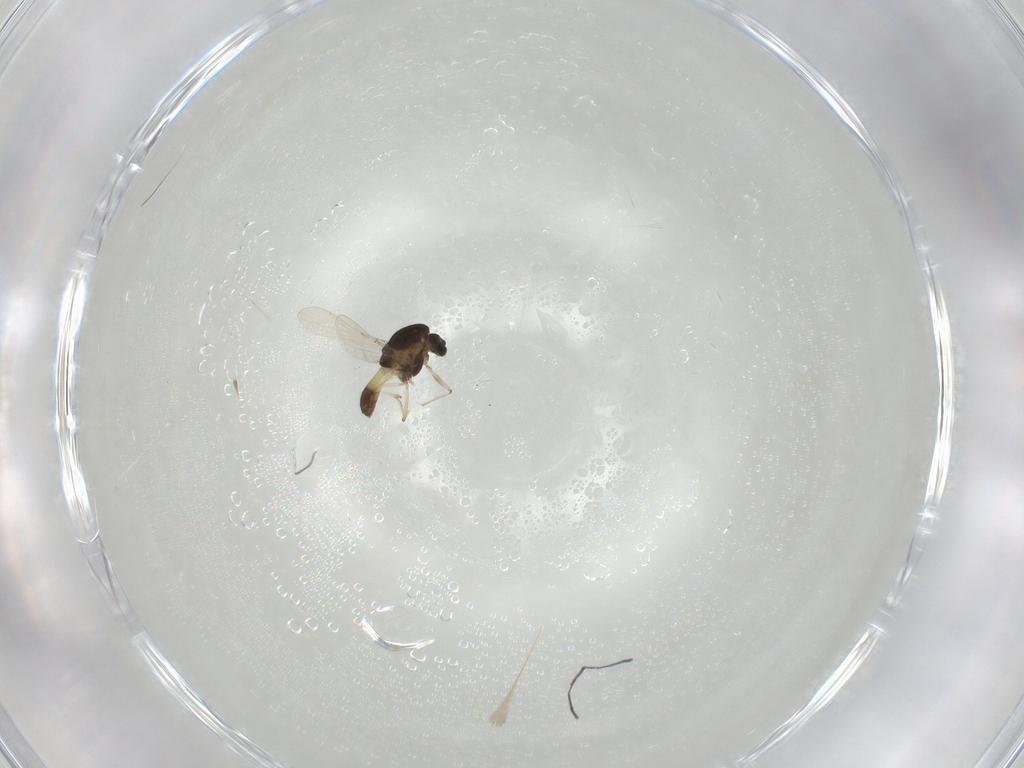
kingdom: Animalia
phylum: Arthropoda
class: Insecta
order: Diptera
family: Chironomidae
